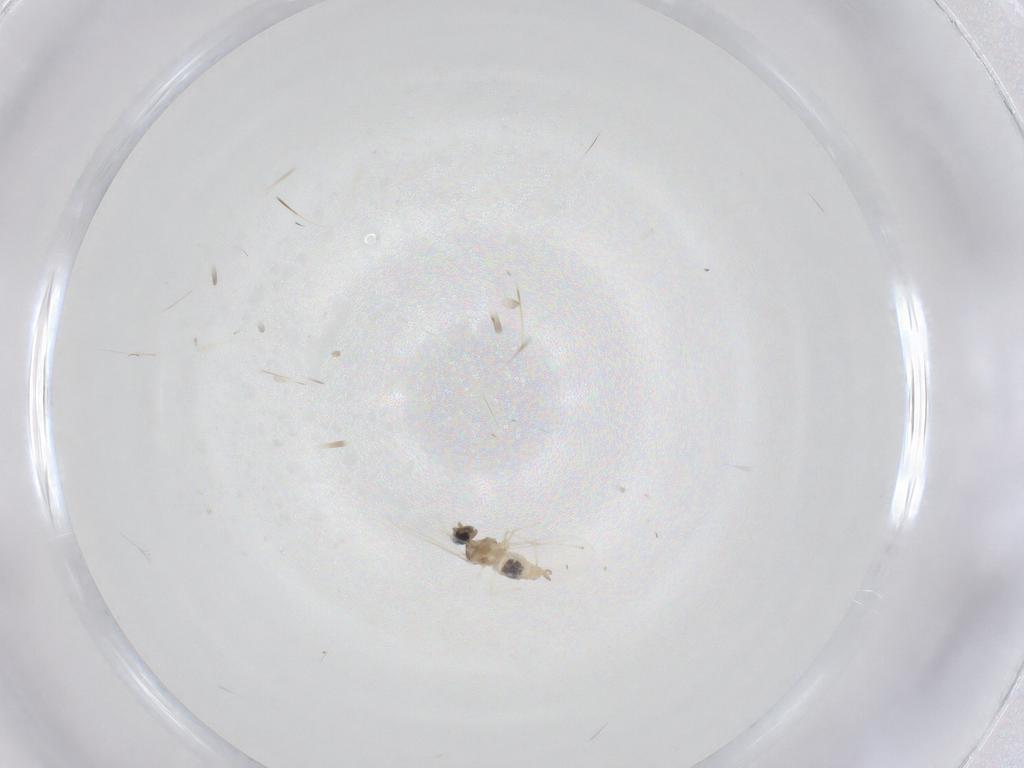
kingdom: Animalia
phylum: Arthropoda
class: Insecta
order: Diptera
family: Cecidomyiidae
